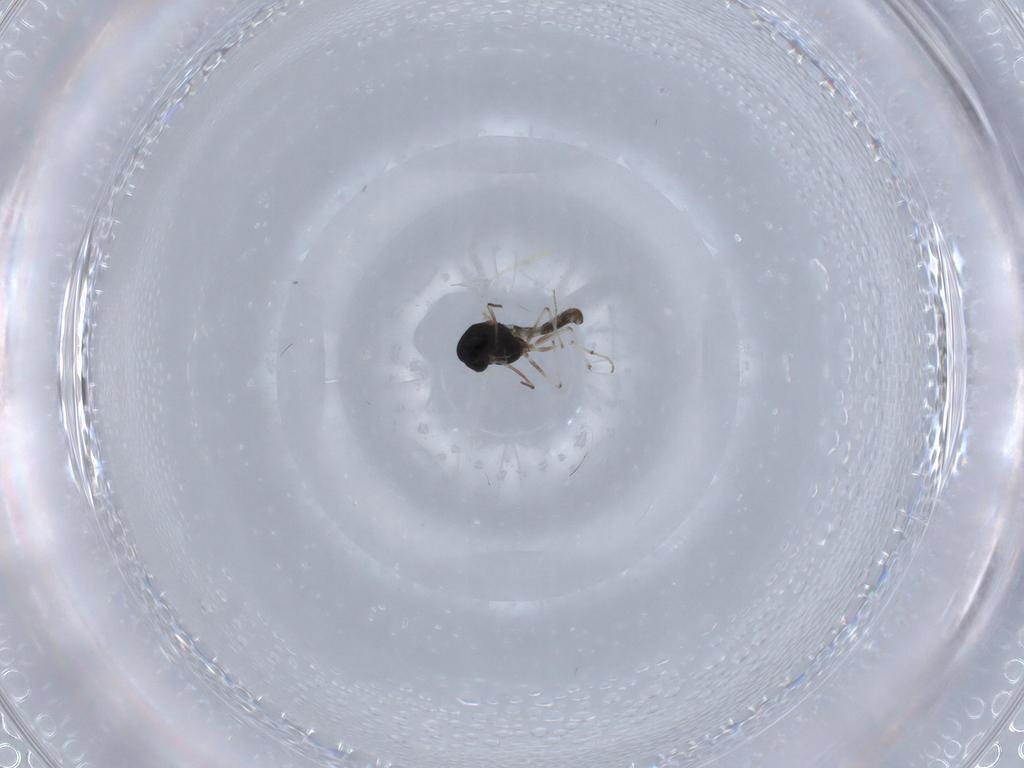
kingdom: Animalia
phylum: Arthropoda
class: Insecta
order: Diptera
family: Chironomidae
